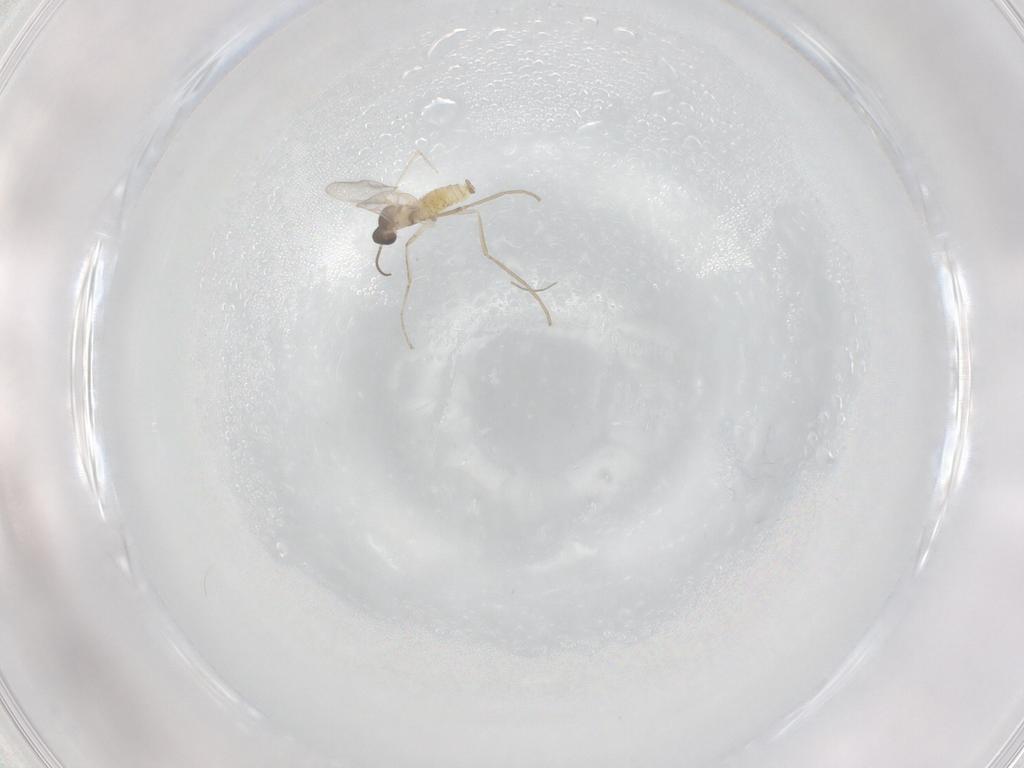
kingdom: Animalia
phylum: Arthropoda
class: Insecta
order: Diptera
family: Cecidomyiidae
